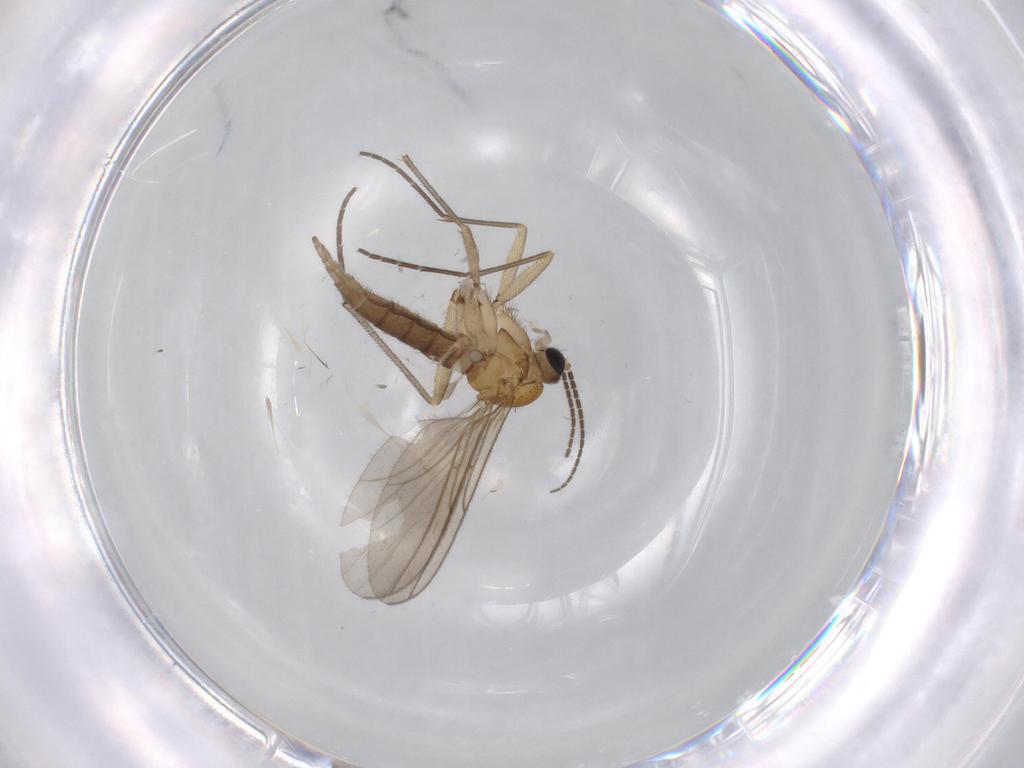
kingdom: Animalia
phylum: Arthropoda
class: Insecta
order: Diptera
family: Sciaridae
